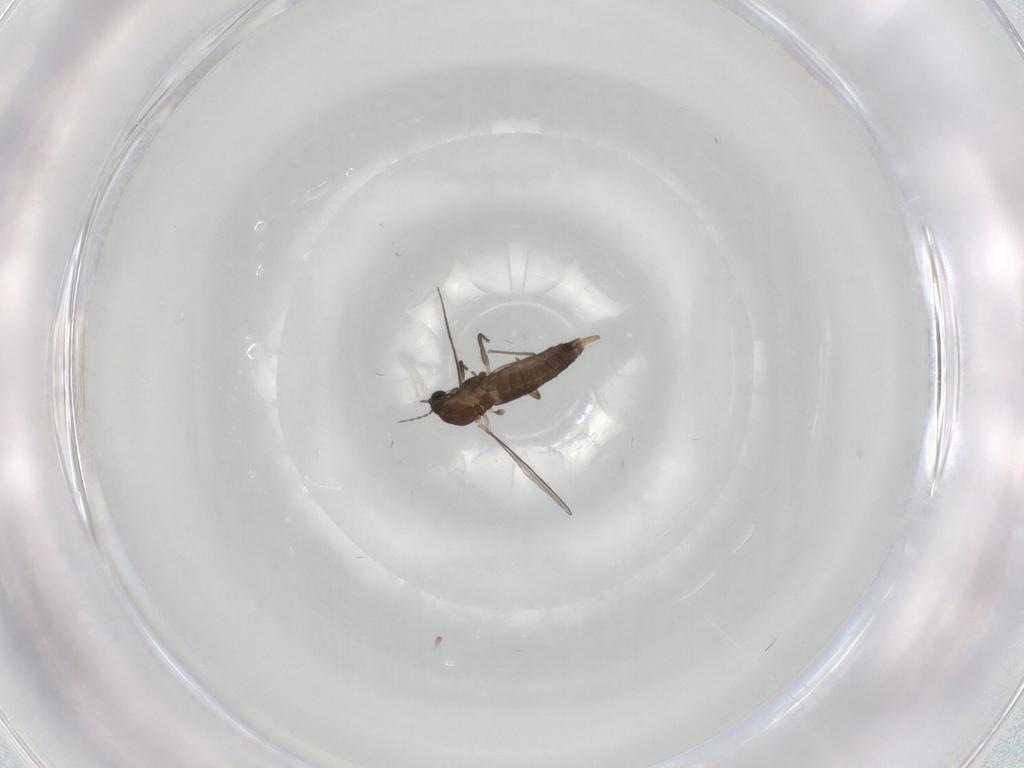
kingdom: Animalia
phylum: Arthropoda
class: Insecta
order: Diptera
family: Chironomidae
